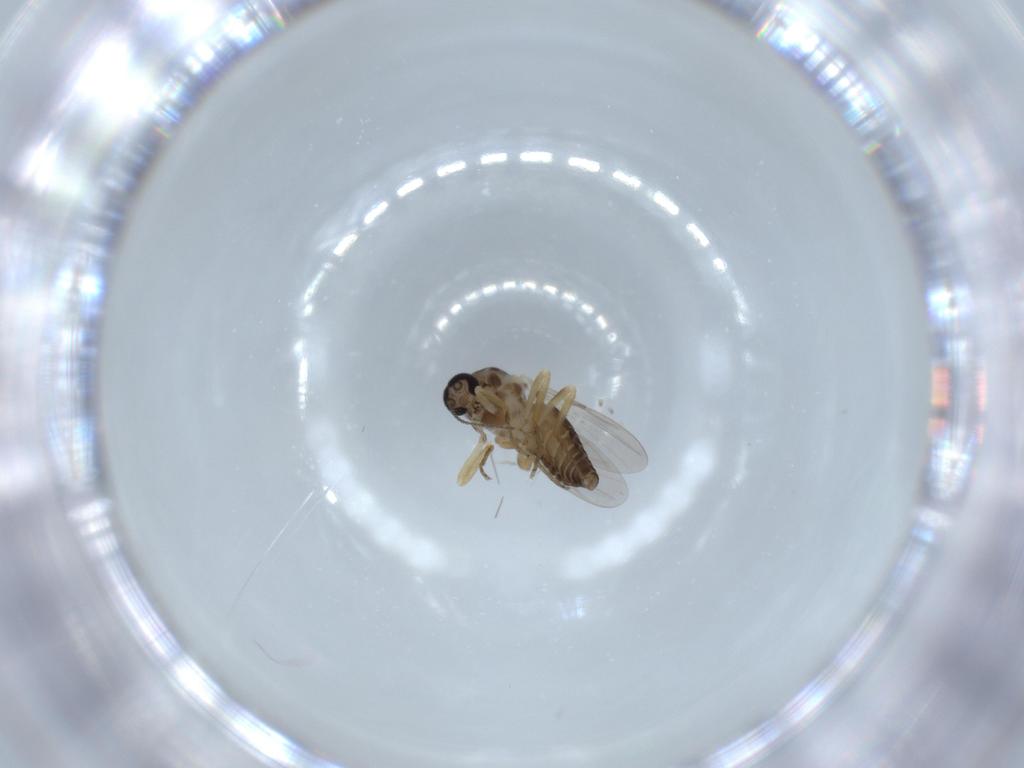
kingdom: Animalia
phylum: Arthropoda
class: Insecta
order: Diptera
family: Ceratopogonidae
